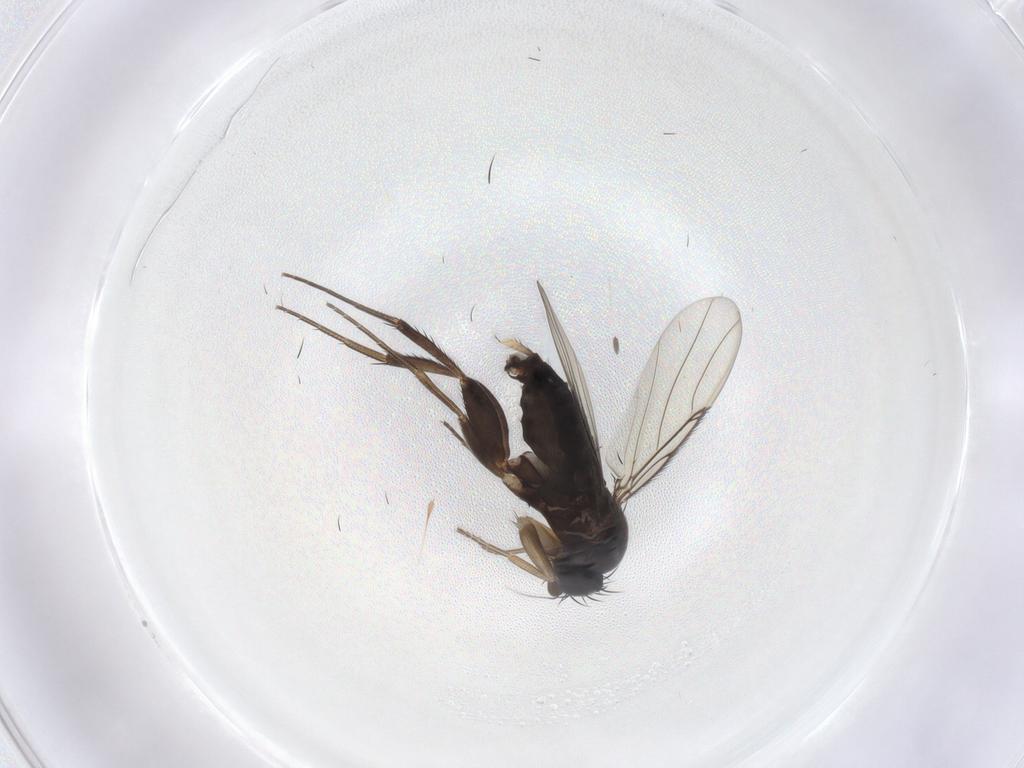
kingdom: Animalia
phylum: Arthropoda
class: Insecta
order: Diptera
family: Phoridae
